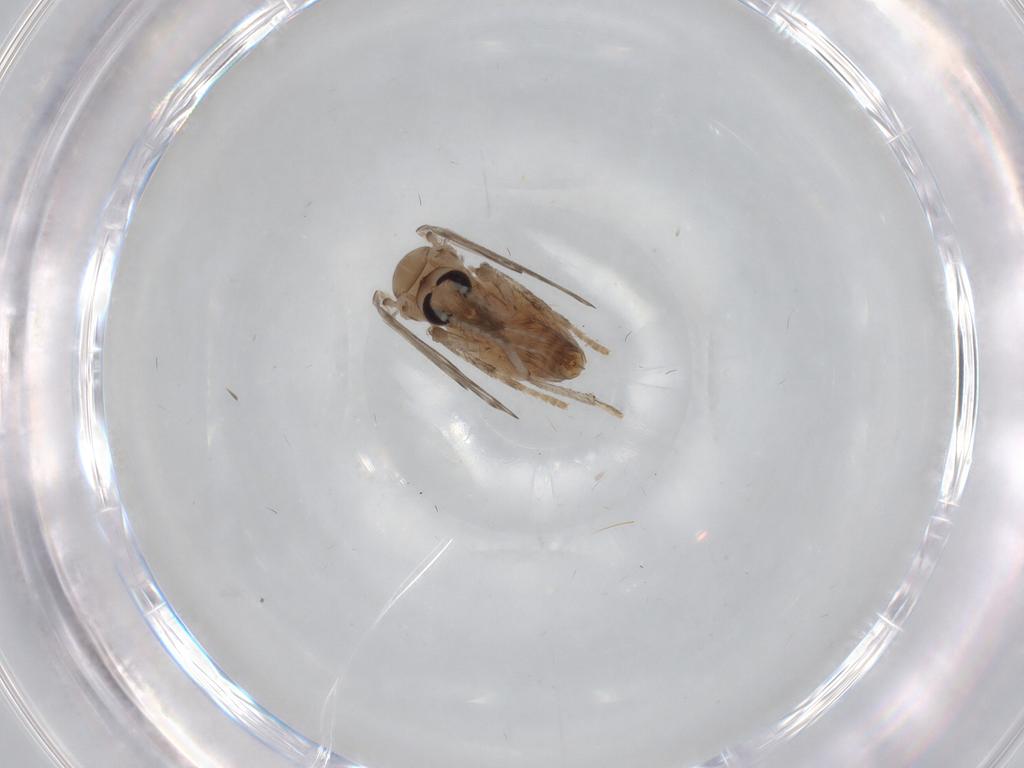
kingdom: Animalia
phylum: Arthropoda
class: Insecta
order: Diptera
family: Psychodidae
